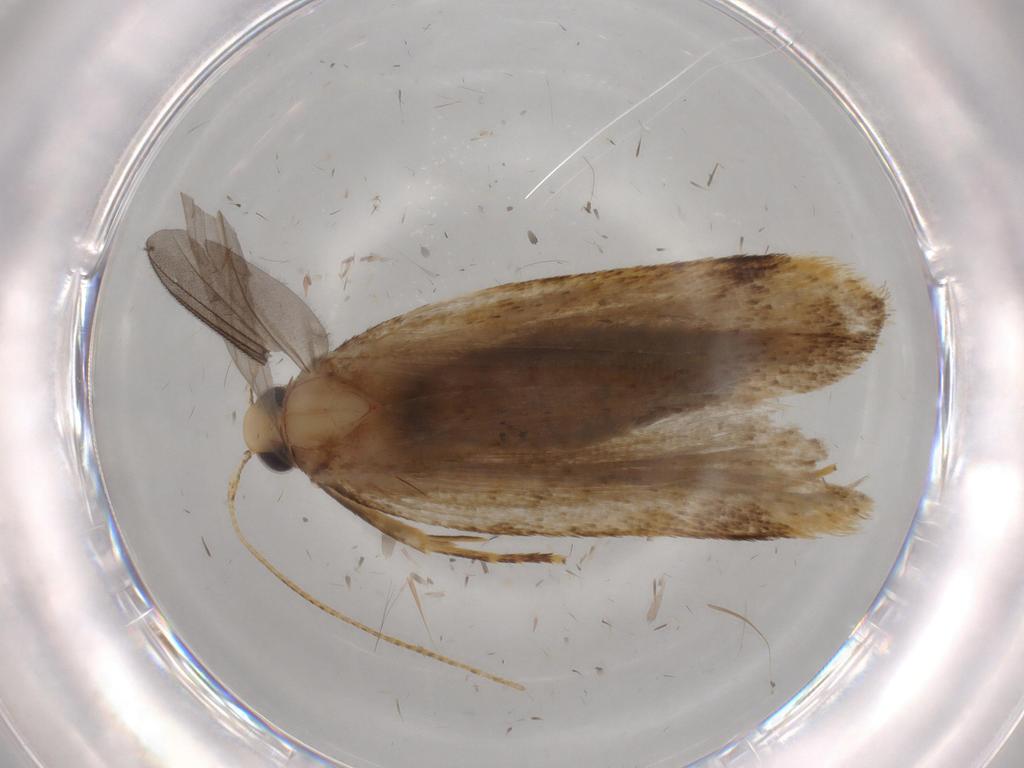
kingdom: Animalia
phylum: Arthropoda
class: Insecta
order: Lepidoptera
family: Autostichidae
